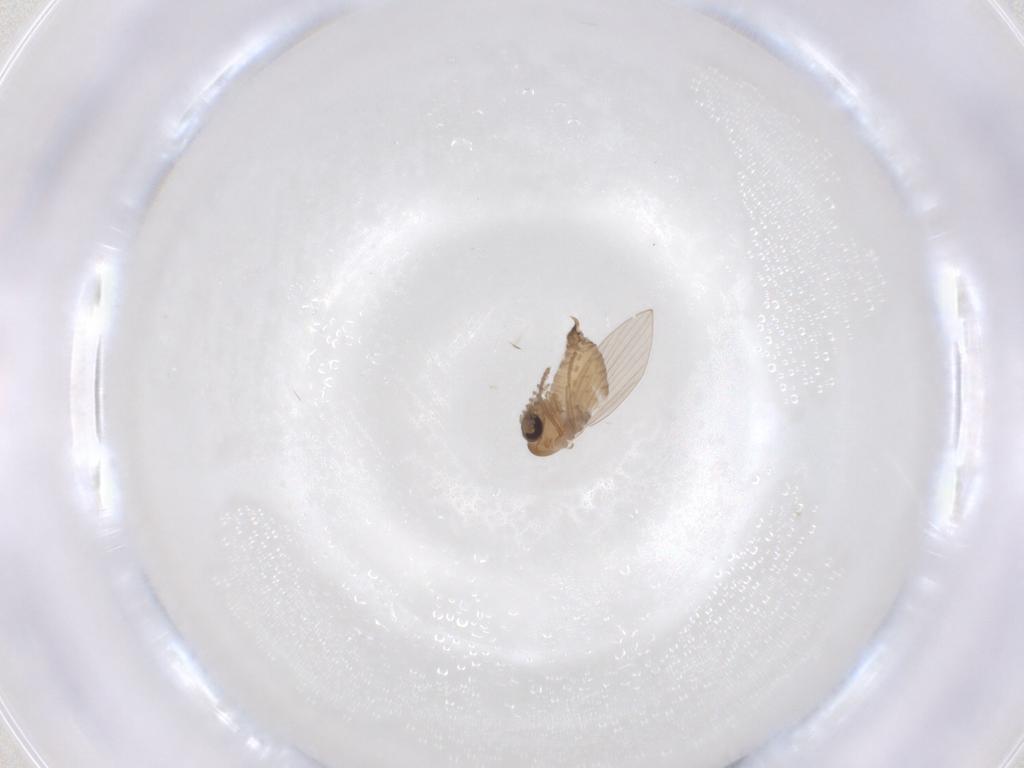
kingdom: Animalia
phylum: Arthropoda
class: Insecta
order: Diptera
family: Psychodidae
